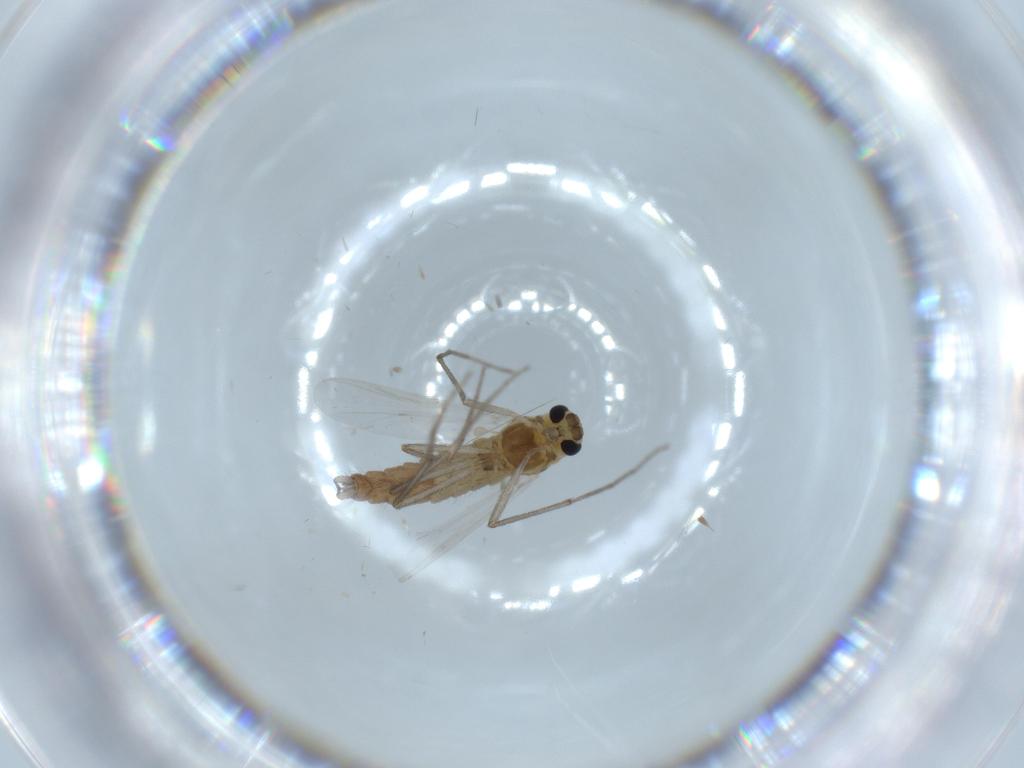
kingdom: Animalia
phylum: Arthropoda
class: Insecta
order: Diptera
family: Chironomidae
